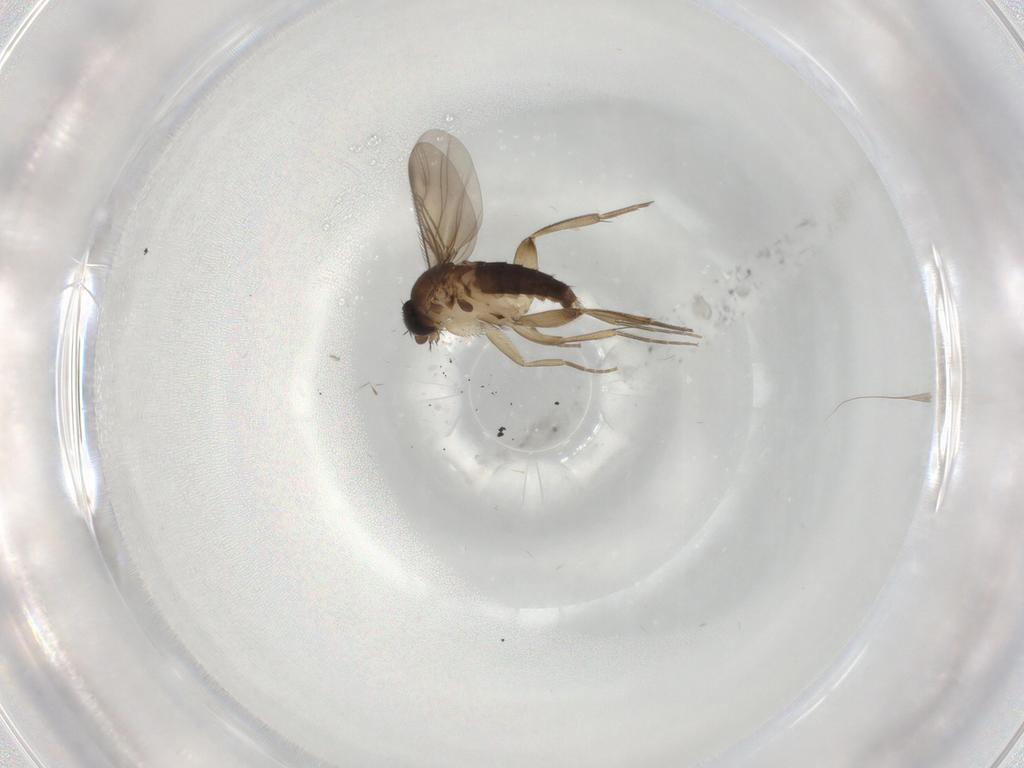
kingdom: Animalia
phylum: Arthropoda
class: Insecta
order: Diptera
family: Phoridae
